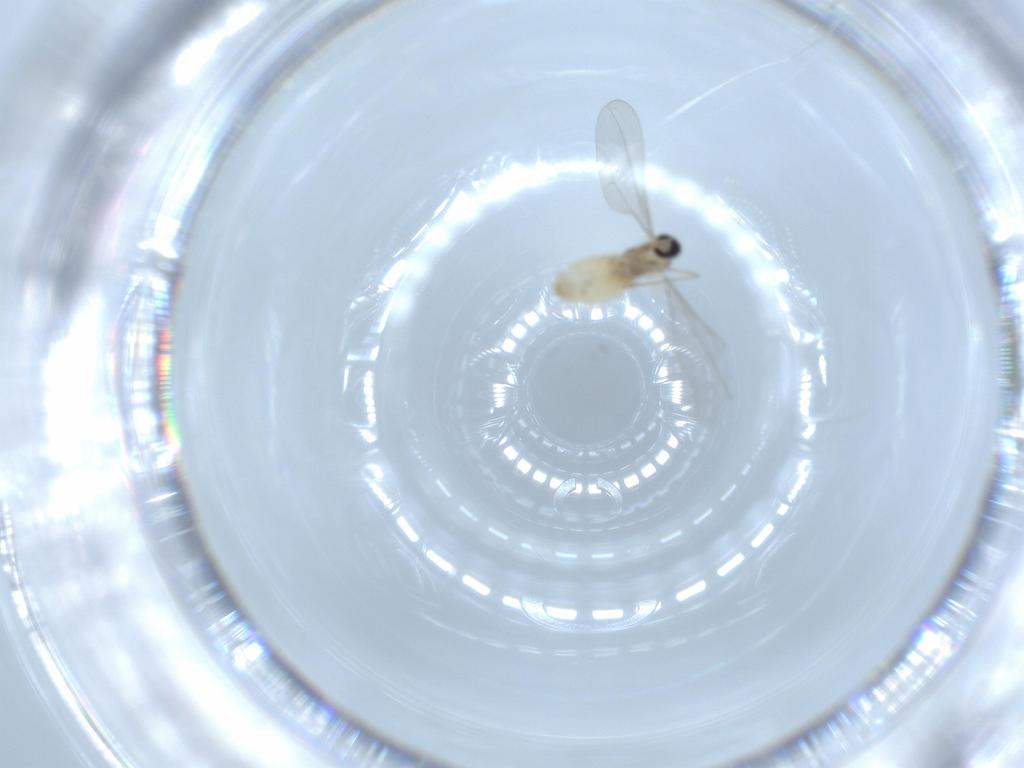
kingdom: Animalia
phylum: Arthropoda
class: Insecta
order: Diptera
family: Cecidomyiidae
